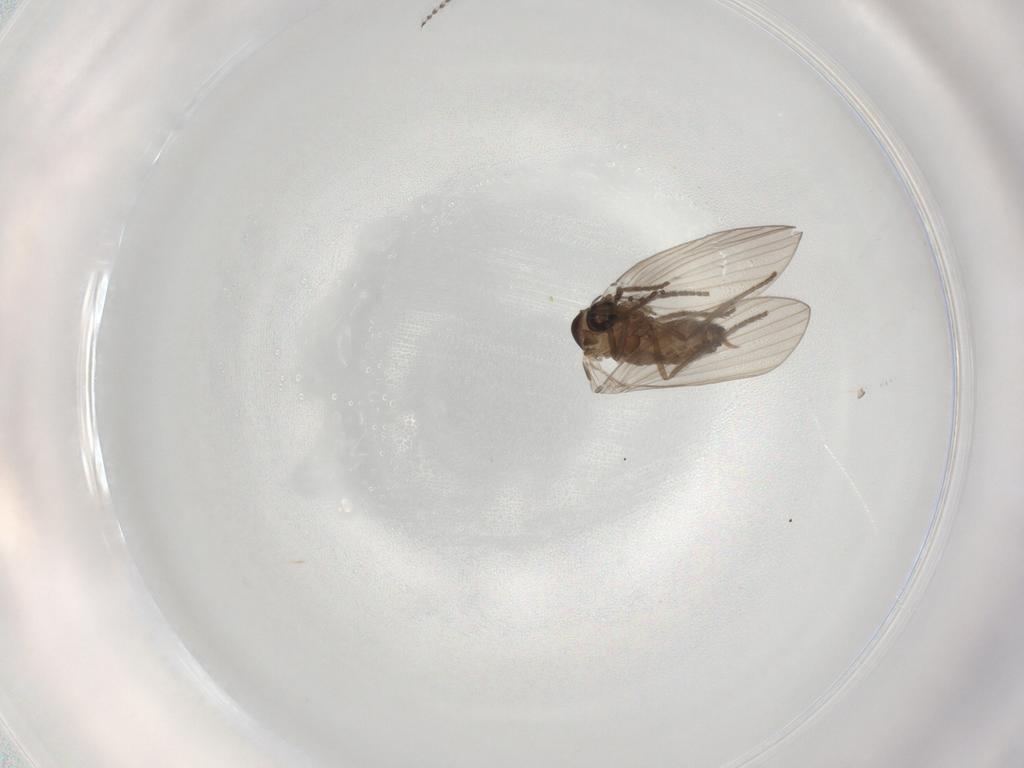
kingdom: Animalia
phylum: Arthropoda
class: Insecta
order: Diptera
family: Psychodidae
